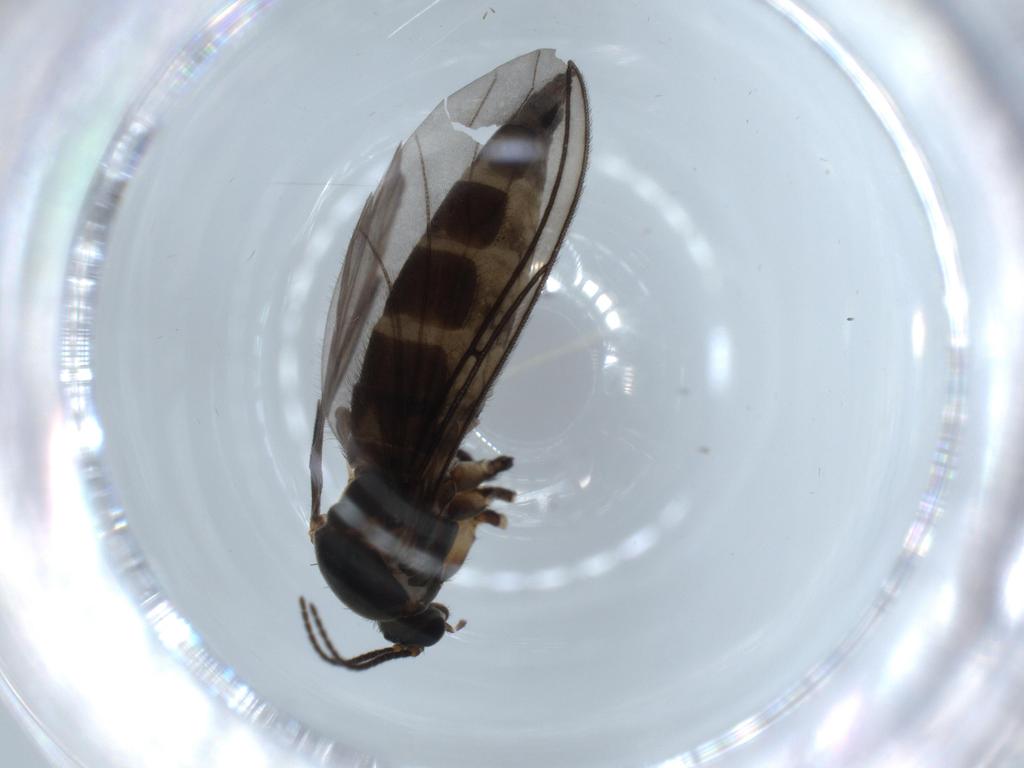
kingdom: Animalia
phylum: Arthropoda
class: Insecta
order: Diptera
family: Sciaridae
